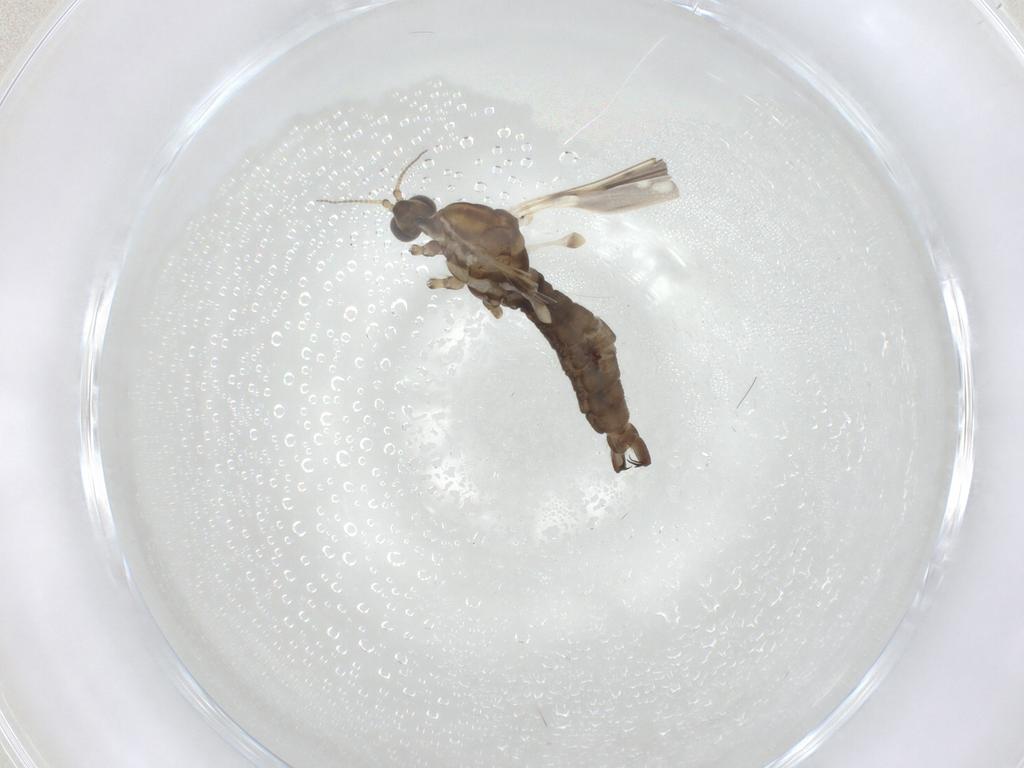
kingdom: Animalia
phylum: Arthropoda
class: Insecta
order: Diptera
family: Limoniidae
